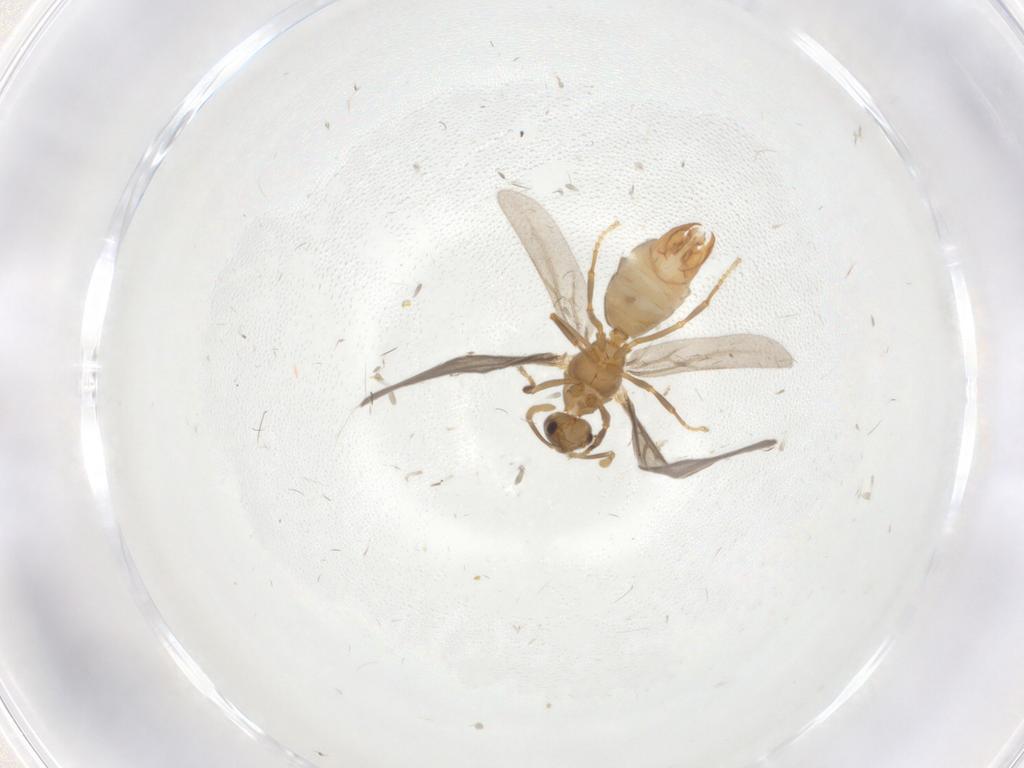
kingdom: Animalia
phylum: Arthropoda
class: Insecta
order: Hymenoptera
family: Formicidae
